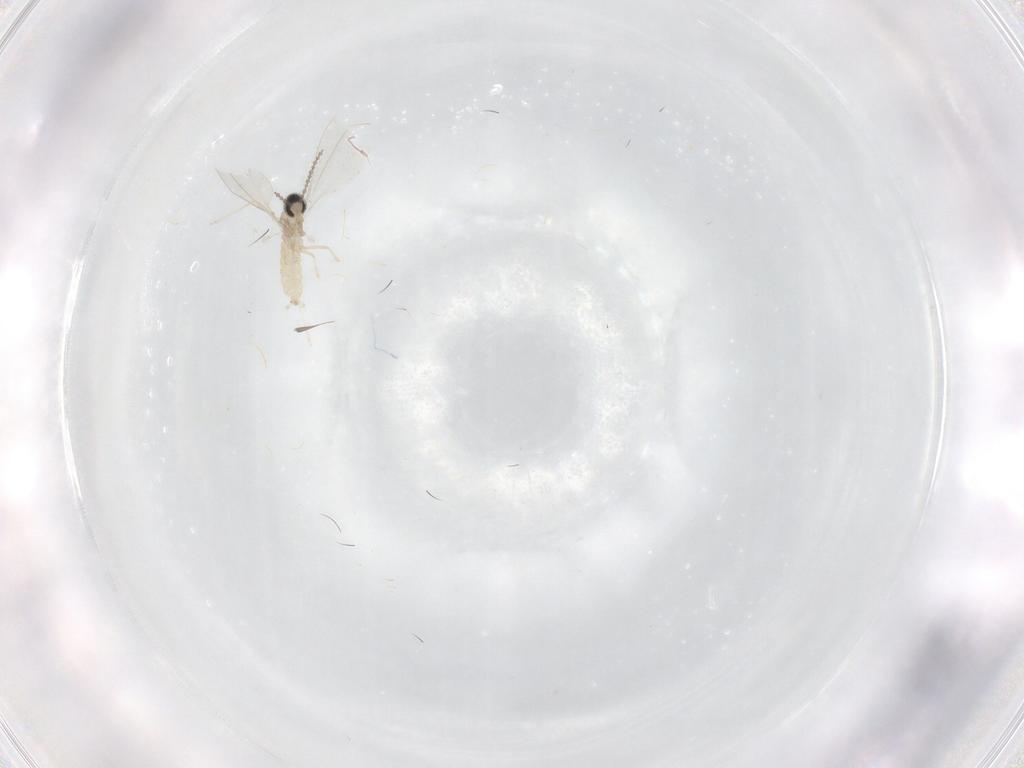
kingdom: Animalia
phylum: Arthropoda
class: Insecta
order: Diptera
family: Cecidomyiidae
